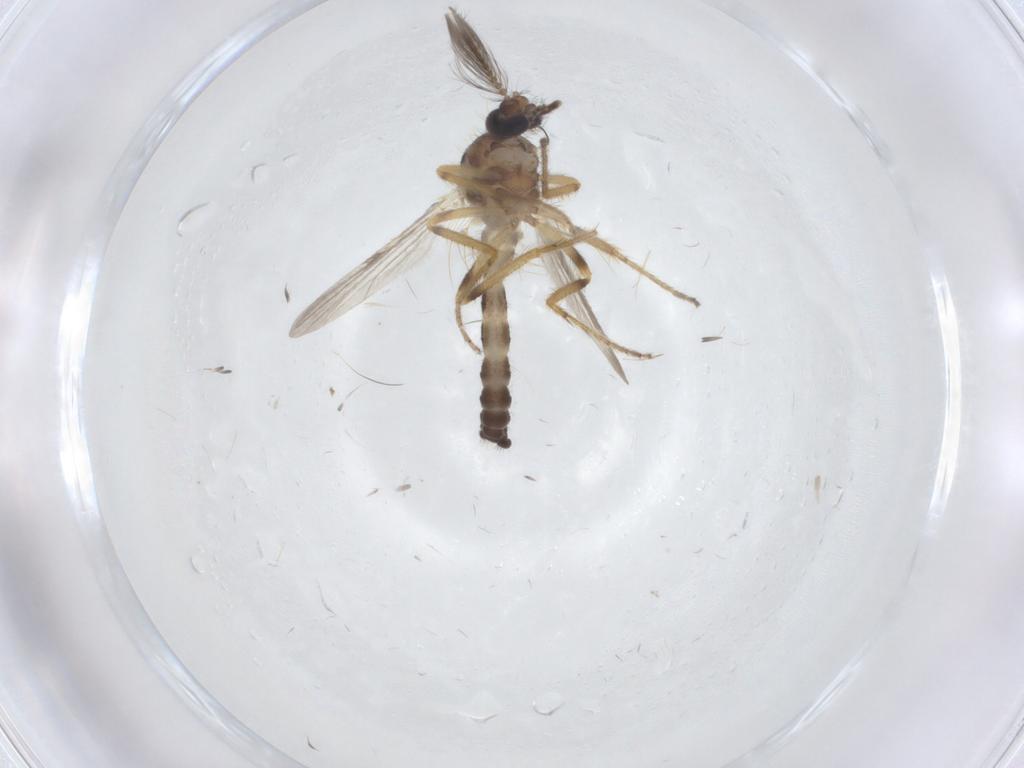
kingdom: Animalia
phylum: Arthropoda
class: Insecta
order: Diptera
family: Ceratopogonidae
